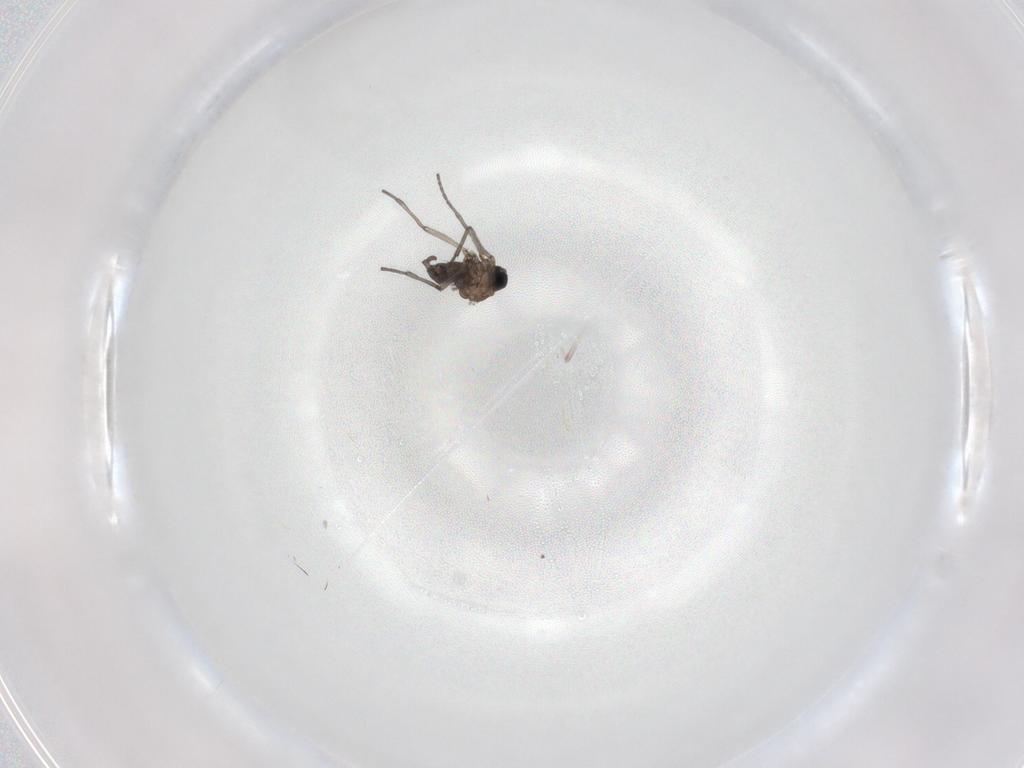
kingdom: Animalia
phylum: Arthropoda
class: Insecta
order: Diptera
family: Sciaridae
